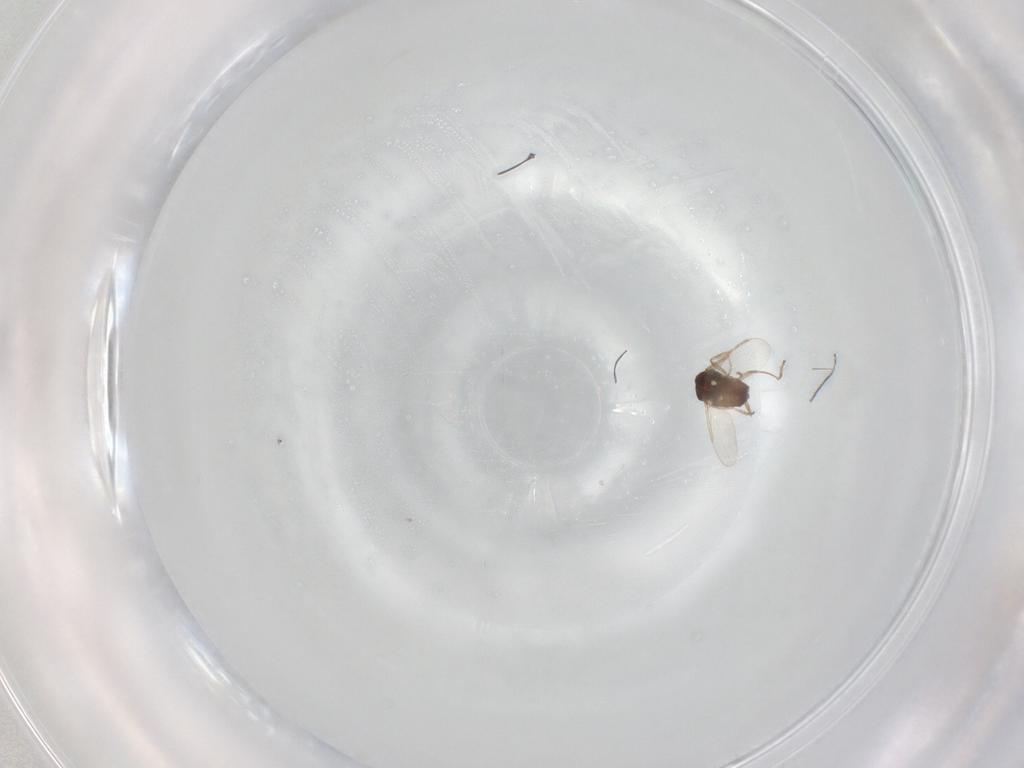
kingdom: Animalia
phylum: Arthropoda
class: Insecta
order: Diptera
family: Ceratopogonidae
